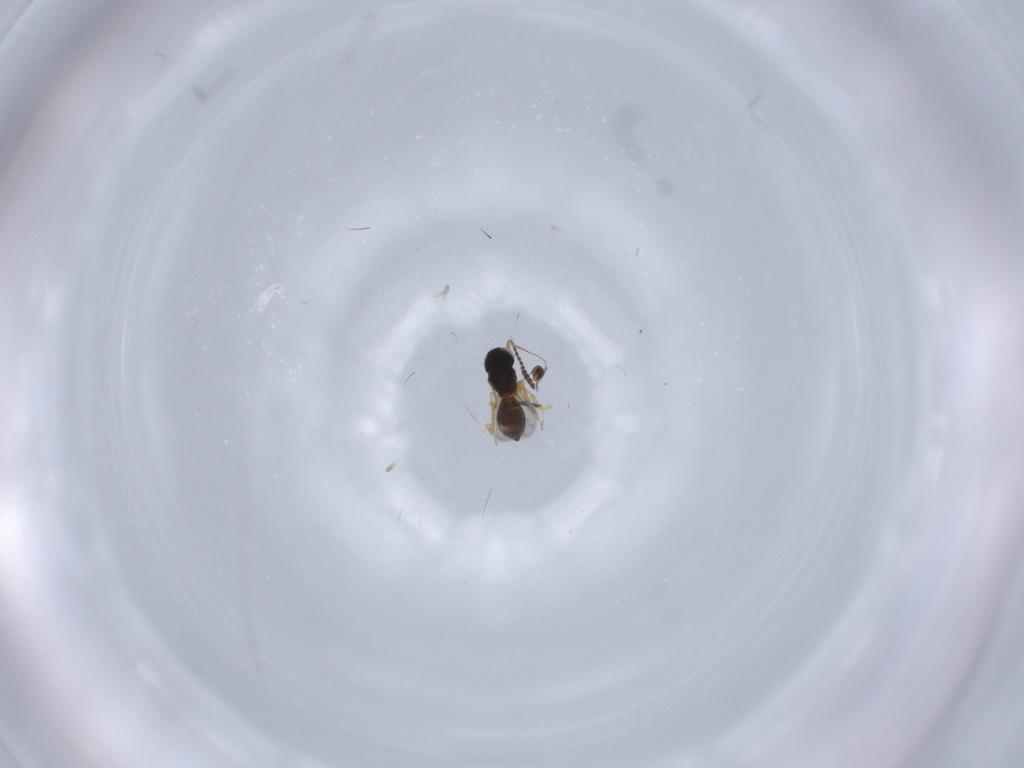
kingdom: Animalia
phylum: Arthropoda
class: Insecta
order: Hymenoptera
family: Scelionidae
